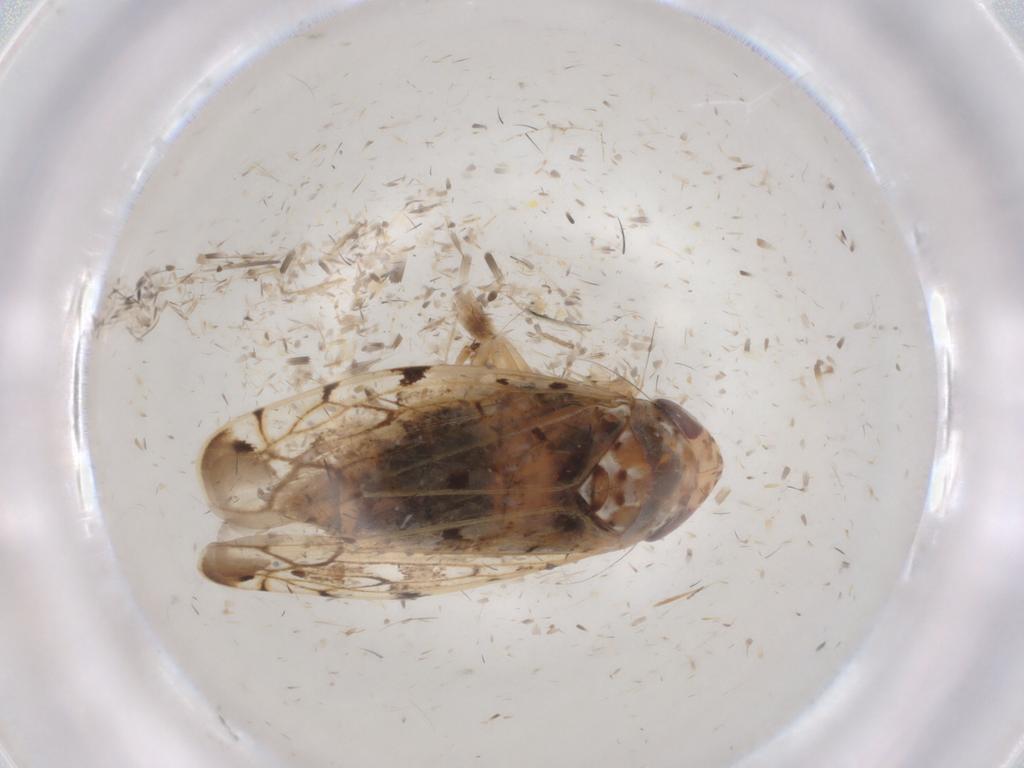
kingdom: Animalia
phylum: Arthropoda
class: Insecta
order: Hemiptera
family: Cicadellidae
